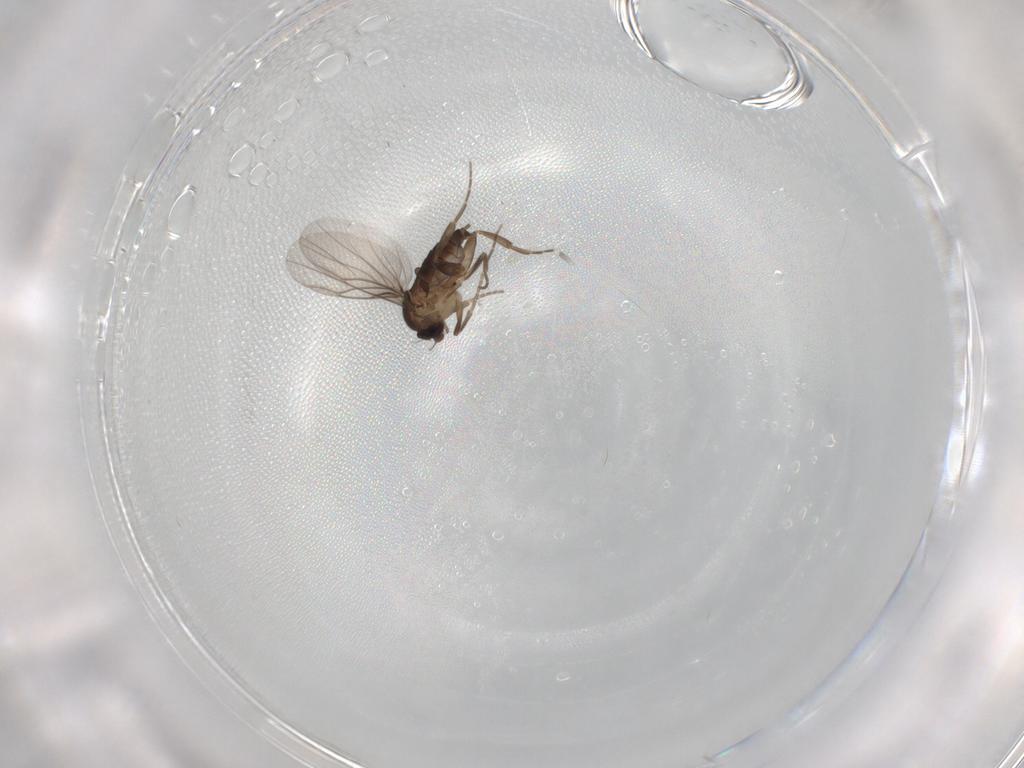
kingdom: Animalia
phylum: Arthropoda
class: Insecta
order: Diptera
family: Phoridae
